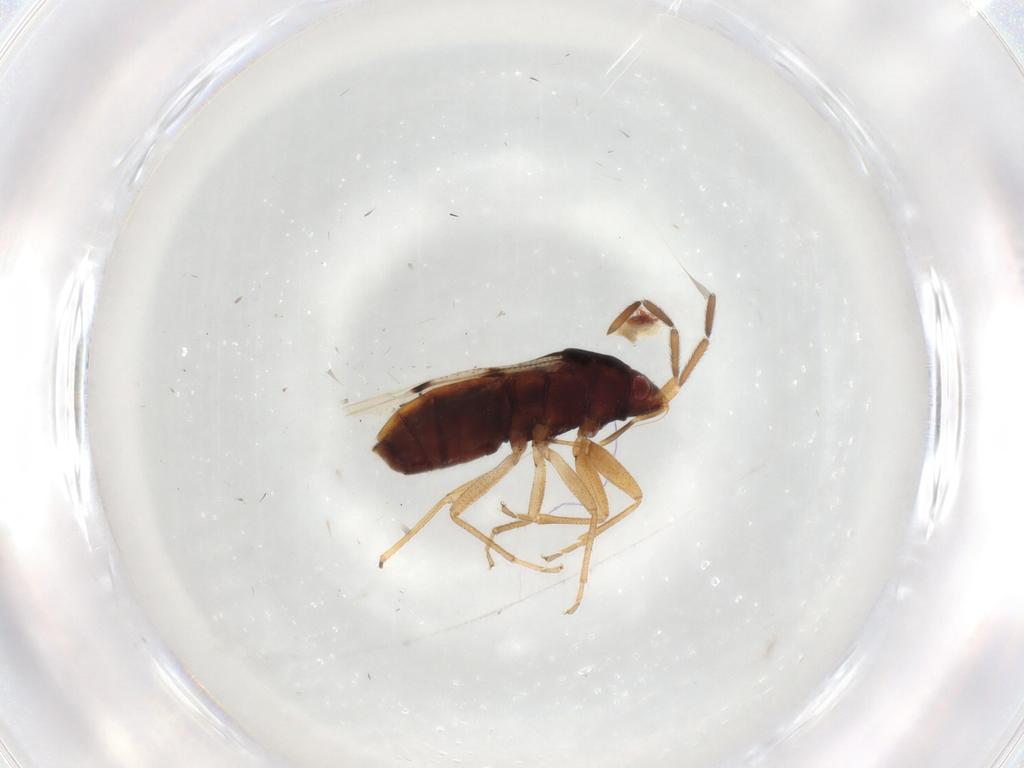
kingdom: Animalia
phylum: Arthropoda
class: Insecta
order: Hemiptera
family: Rhyparochromidae
